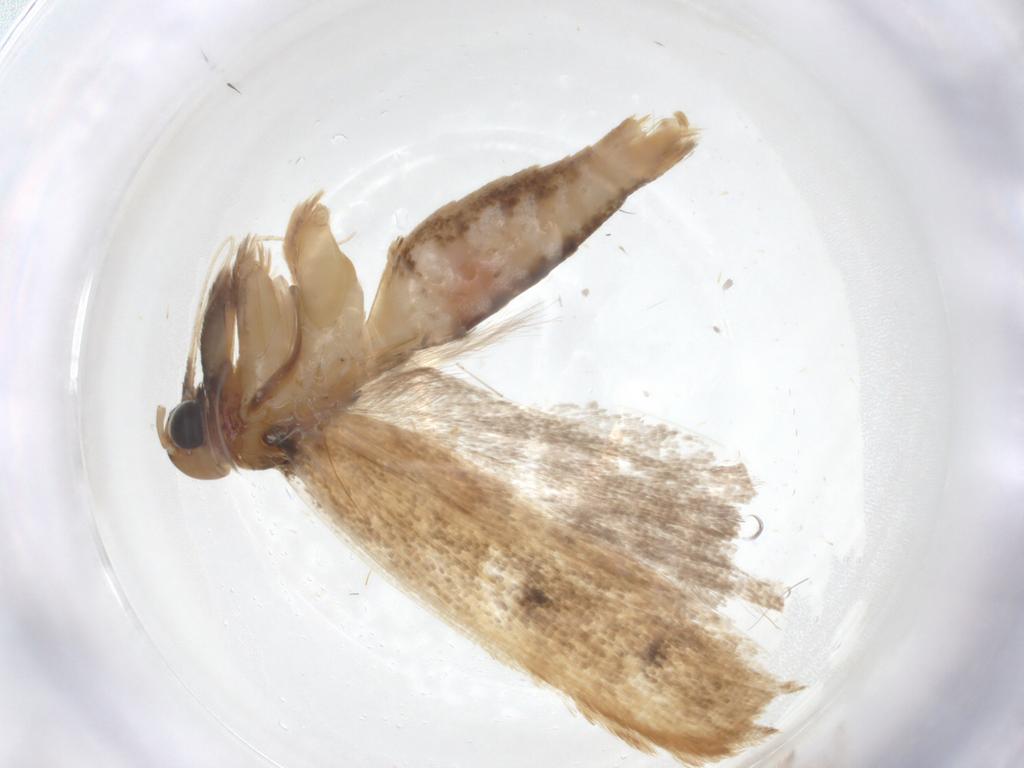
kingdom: Animalia
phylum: Arthropoda
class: Insecta
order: Lepidoptera
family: Gelechiidae
